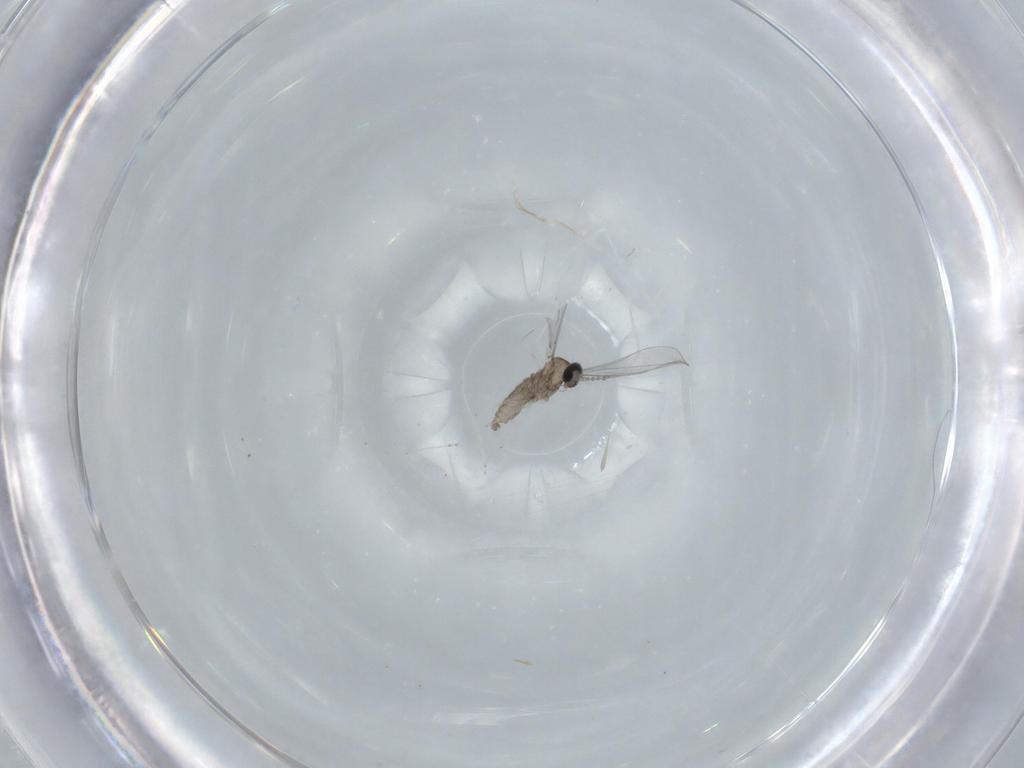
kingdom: Animalia
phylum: Arthropoda
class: Insecta
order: Diptera
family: Cecidomyiidae
